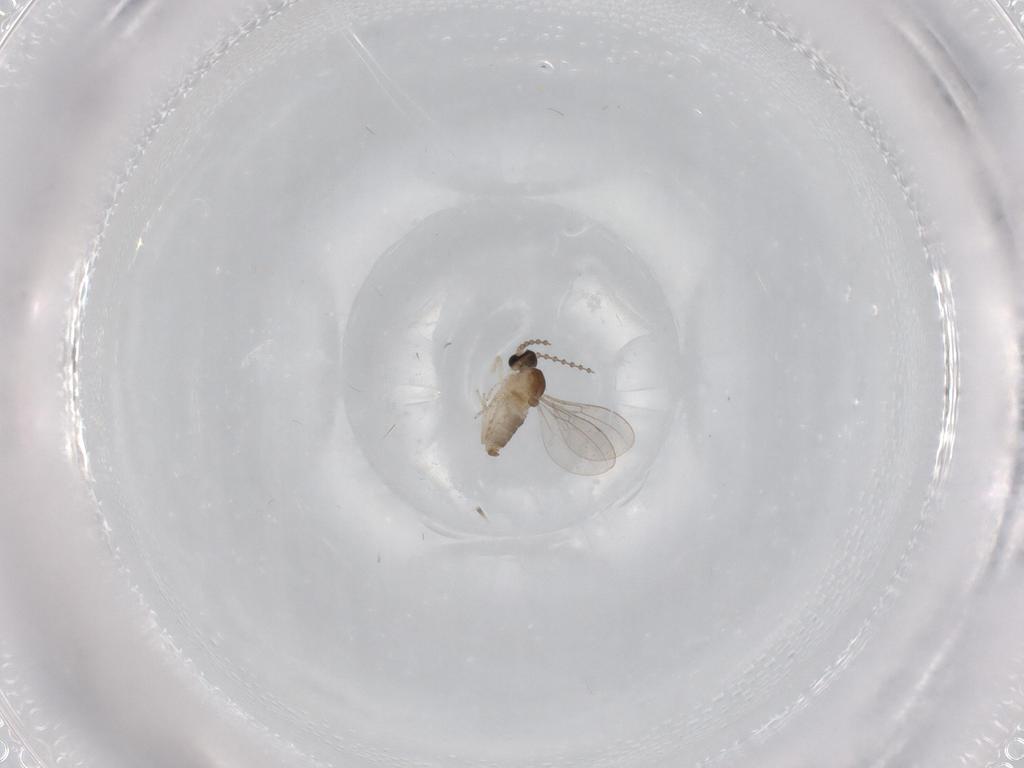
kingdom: Animalia
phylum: Arthropoda
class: Insecta
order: Diptera
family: Sciaridae
